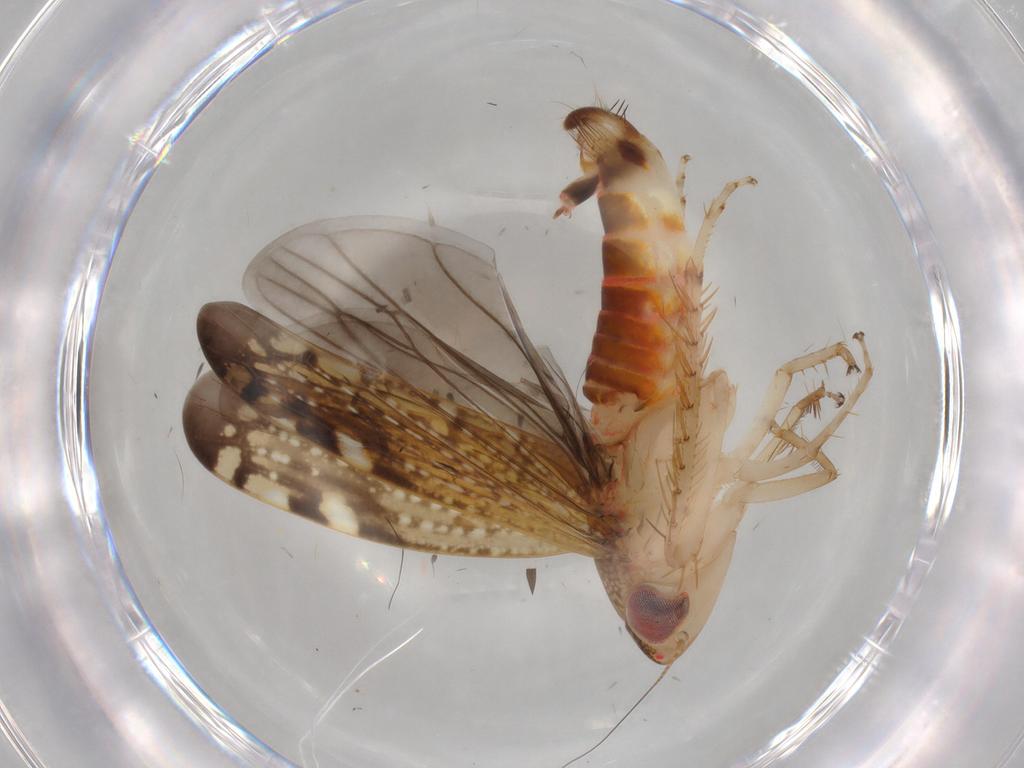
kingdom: Animalia
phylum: Arthropoda
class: Insecta
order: Hemiptera
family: Cicadellidae
